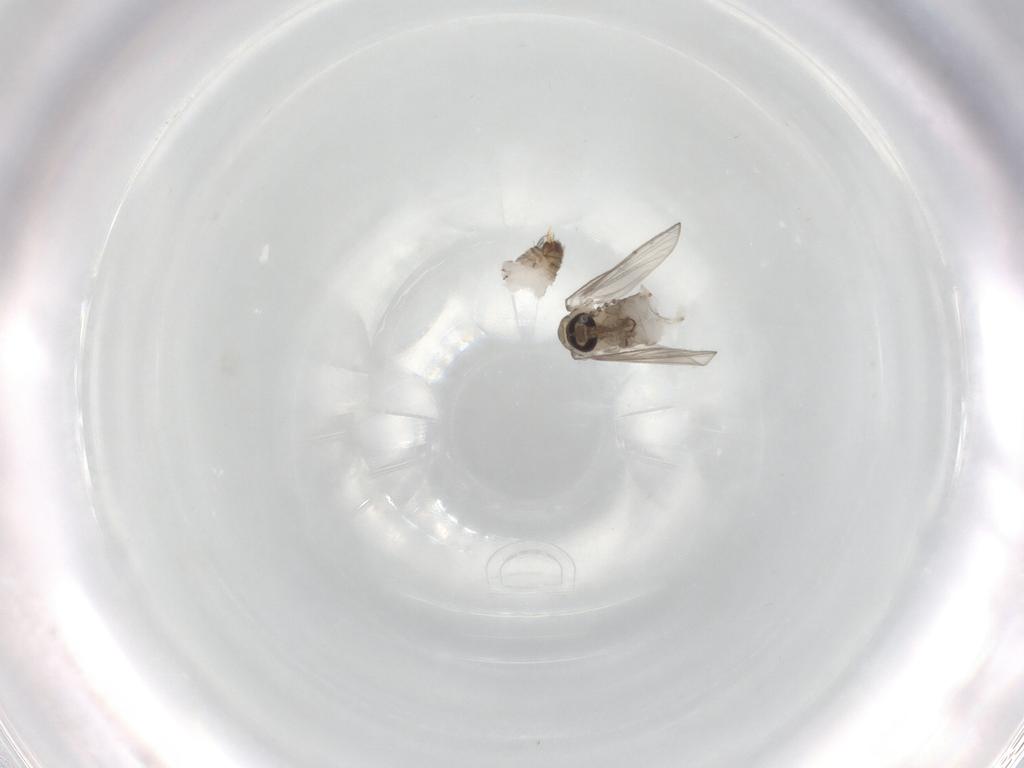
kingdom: Animalia
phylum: Arthropoda
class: Insecta
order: Diptera
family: Psychodidae
